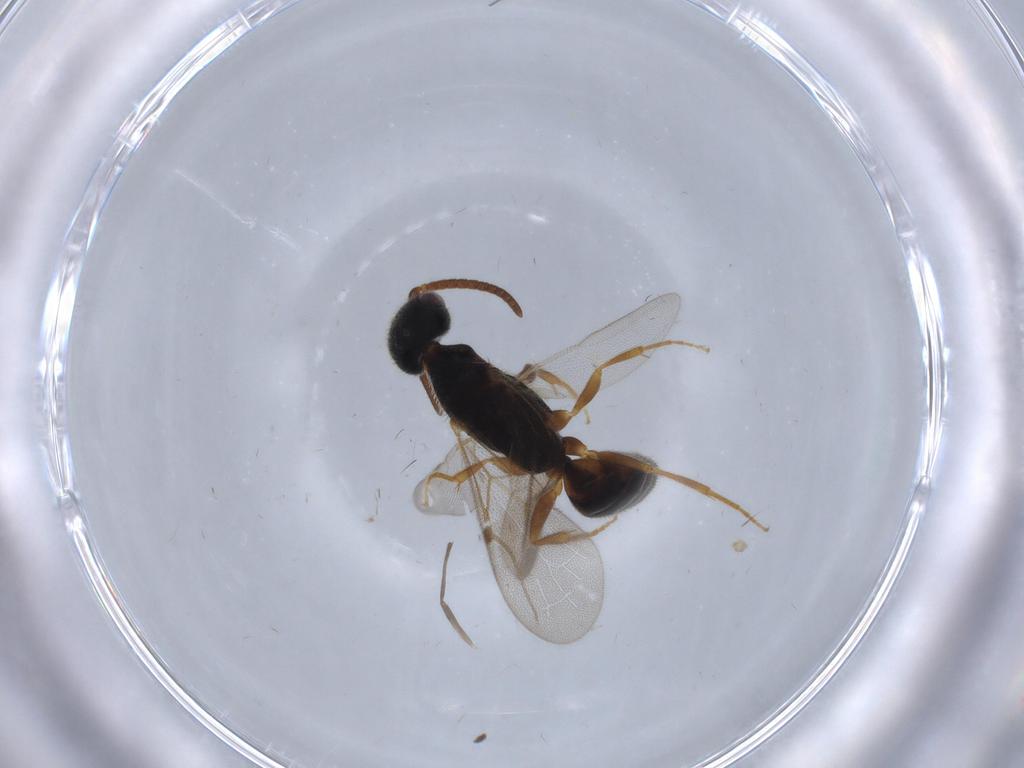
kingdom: Animalia
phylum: Arthropoda
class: Insecta
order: Hymenoptera
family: Bethylidae
